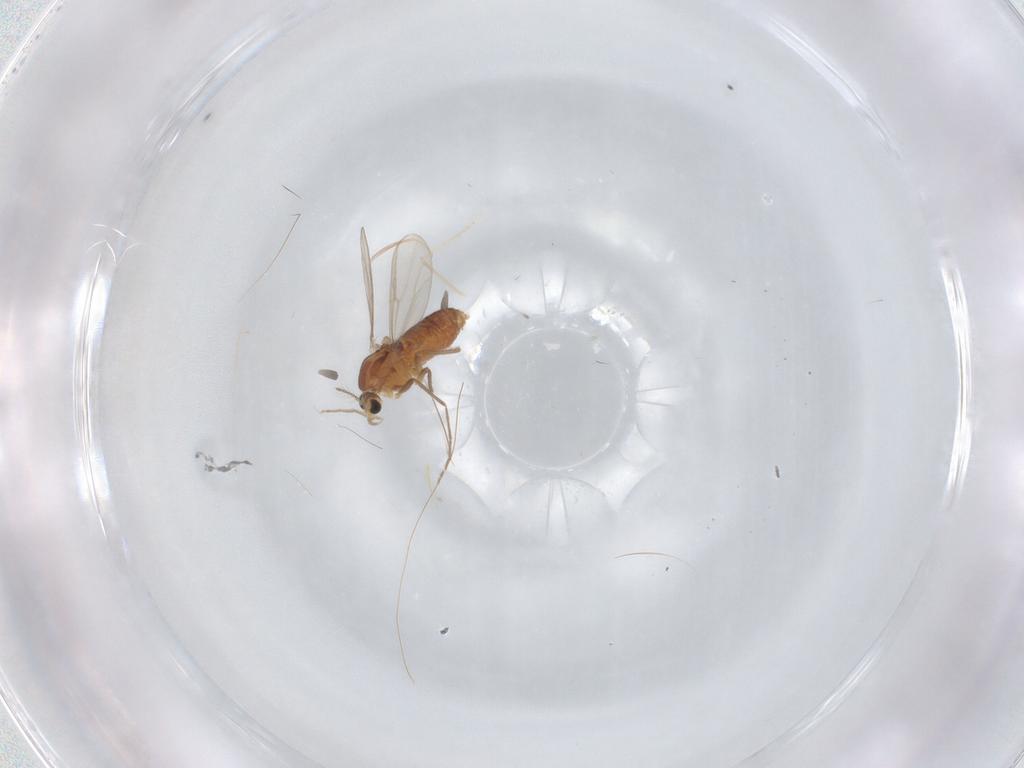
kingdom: Animalia
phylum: Arthropoda
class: Insecta
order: Diptera
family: Chironomidae
